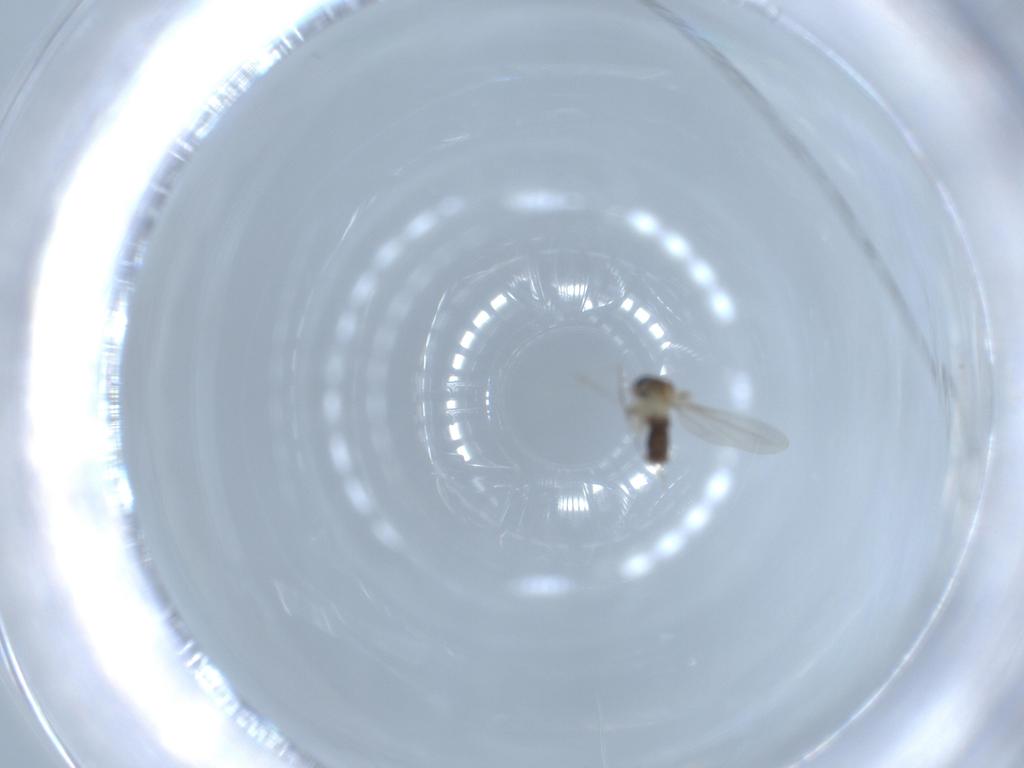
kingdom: Animalia
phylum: Arthropoda
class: Insecta
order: Diptera
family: Cecidomyiidae
